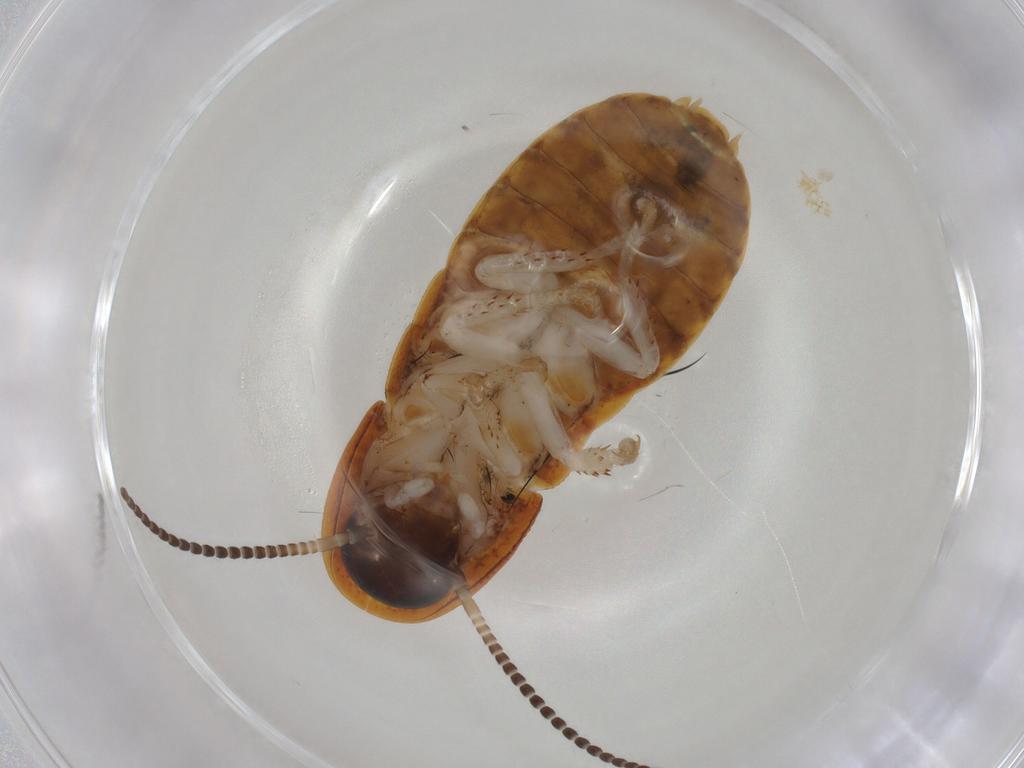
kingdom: Animalia
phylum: Arthropoda
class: Insecta
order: Blattodea
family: Blaberidae
